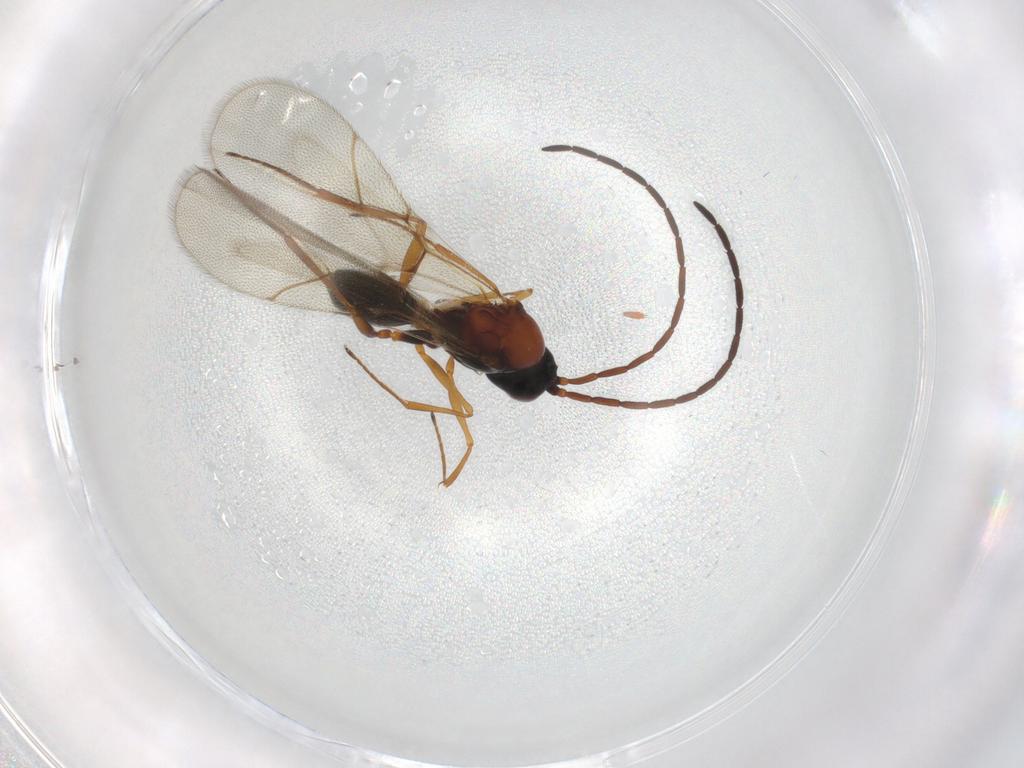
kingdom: Animalia
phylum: Arthropoda
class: Insecta
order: Hymenoptera
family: Figitidae
